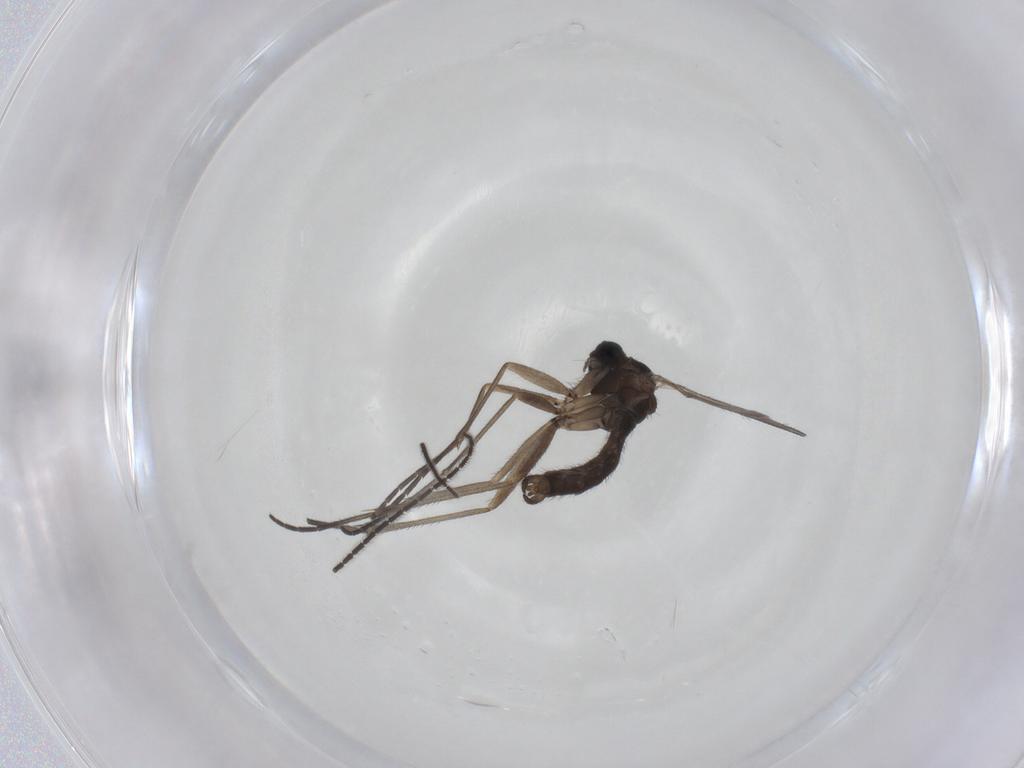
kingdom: Animalia
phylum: Arthropoda
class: Insecta
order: Diptera
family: Sciaridae
